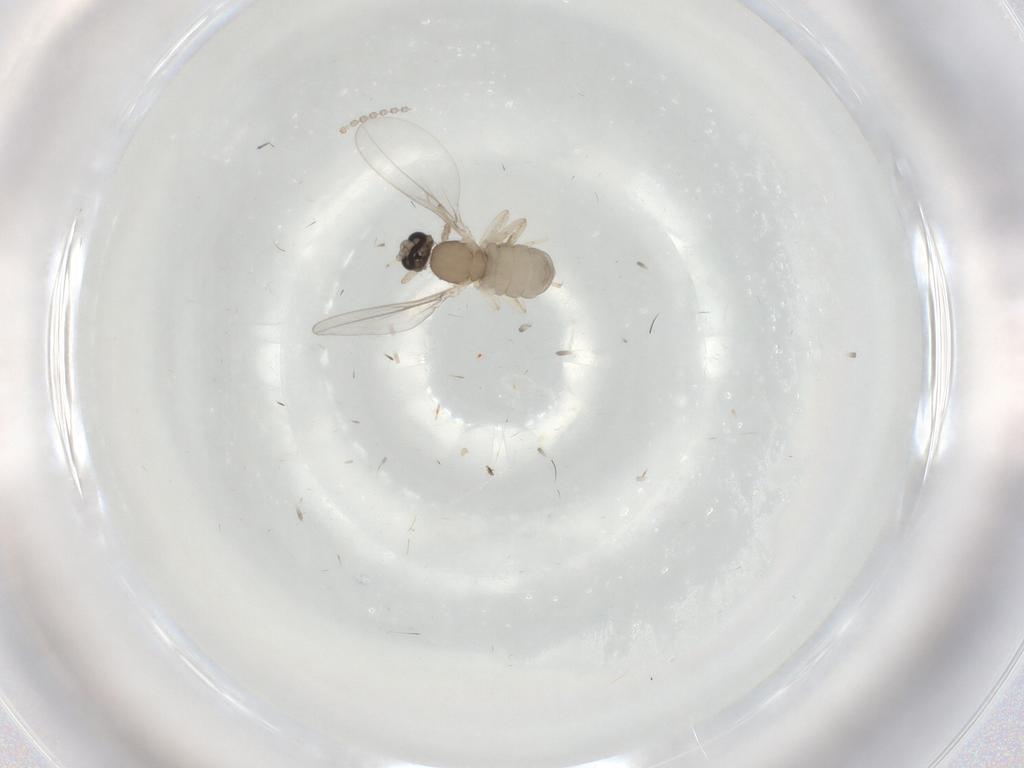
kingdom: Animalia
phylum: Arthropoda
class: Insecta
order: Diptera
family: Cecidomyiidae
